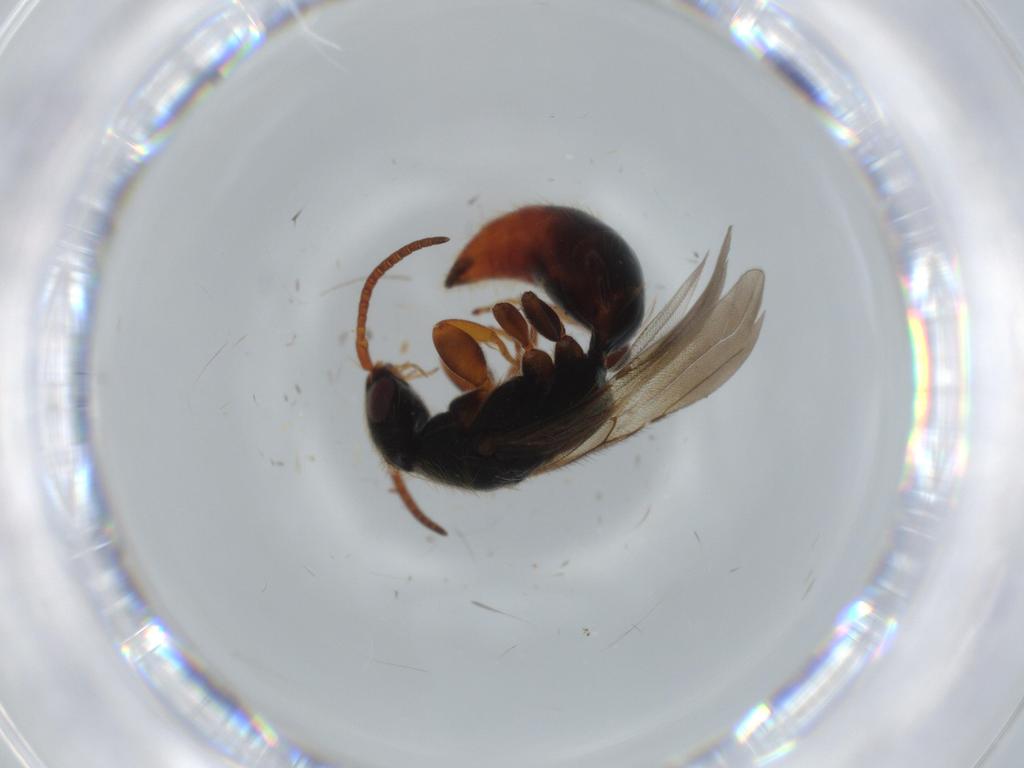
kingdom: Animalia
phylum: Arthropoda
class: Insecta
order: Hymenoptera
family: Bethylidae
